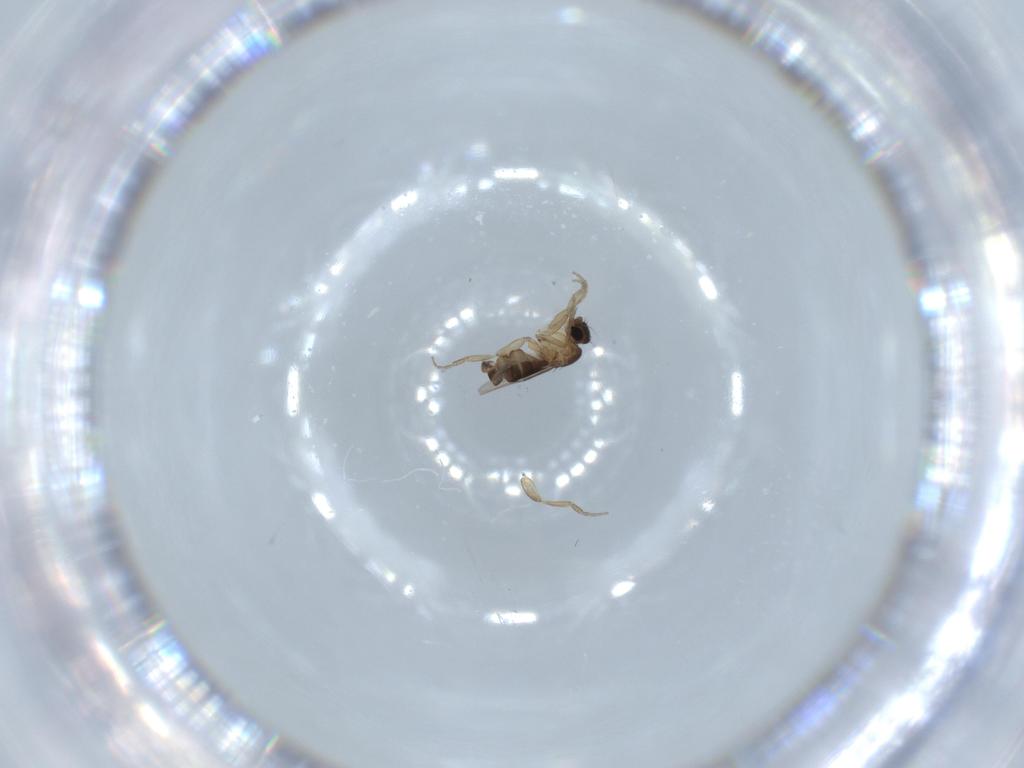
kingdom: Animalia
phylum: Arthropoda
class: Insecta
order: Diptera
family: Phoridae
